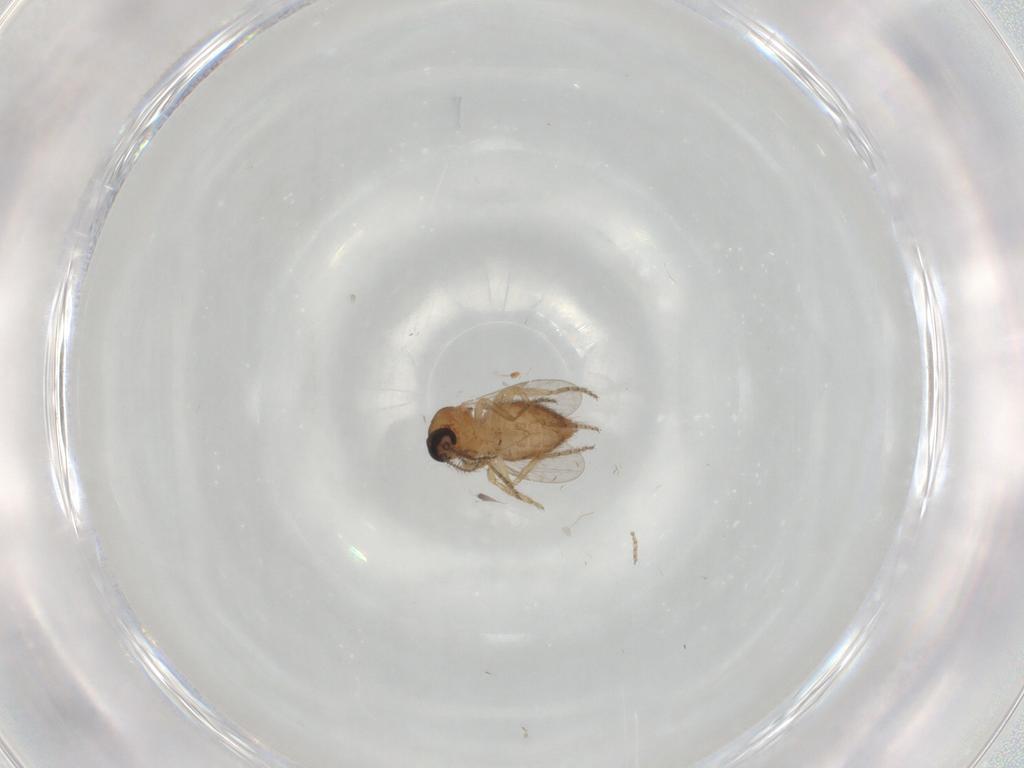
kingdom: Animalia
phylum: Arthropoda
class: Insecta
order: Diptera
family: Ceratopogonidae
